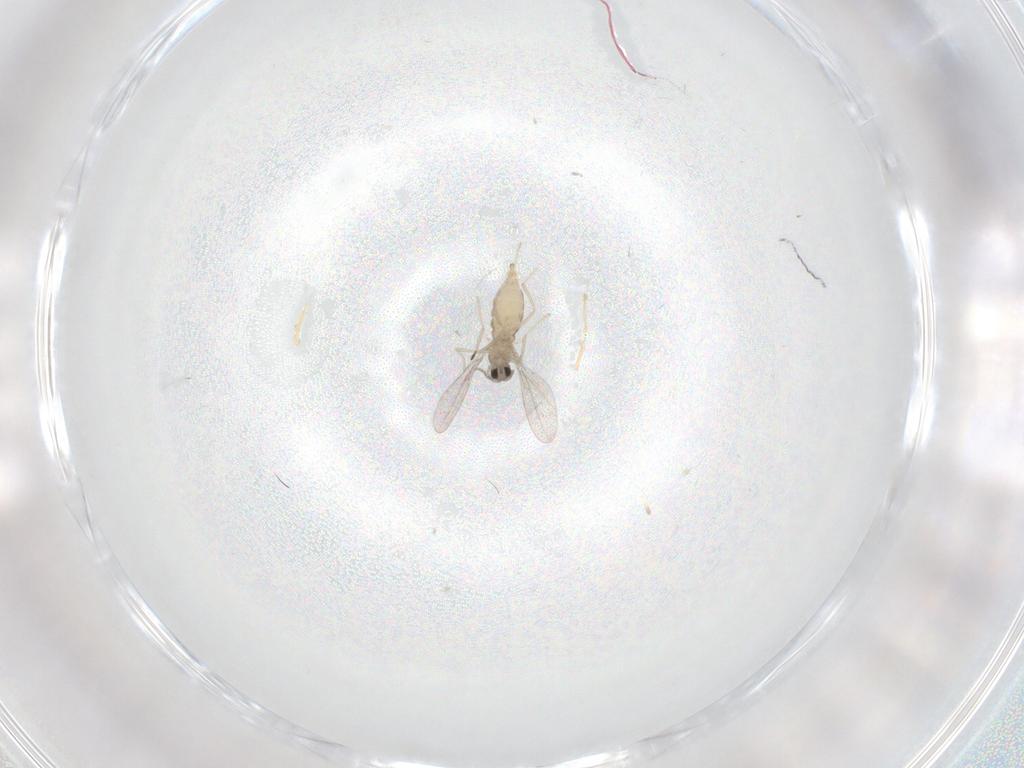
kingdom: Animalia
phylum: Arthropoda
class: Insecta
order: Diptera
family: Cecidomyiidae
